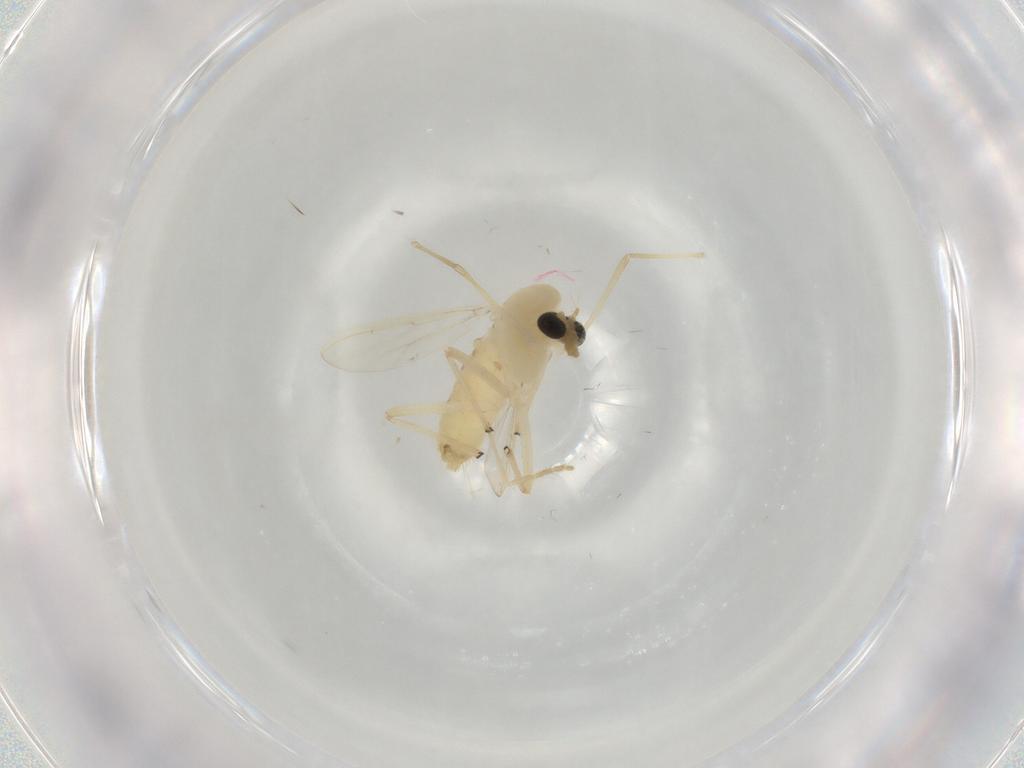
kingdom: Animalia
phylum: Arthropoda
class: Insecta
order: Diptera
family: Chironomidae
